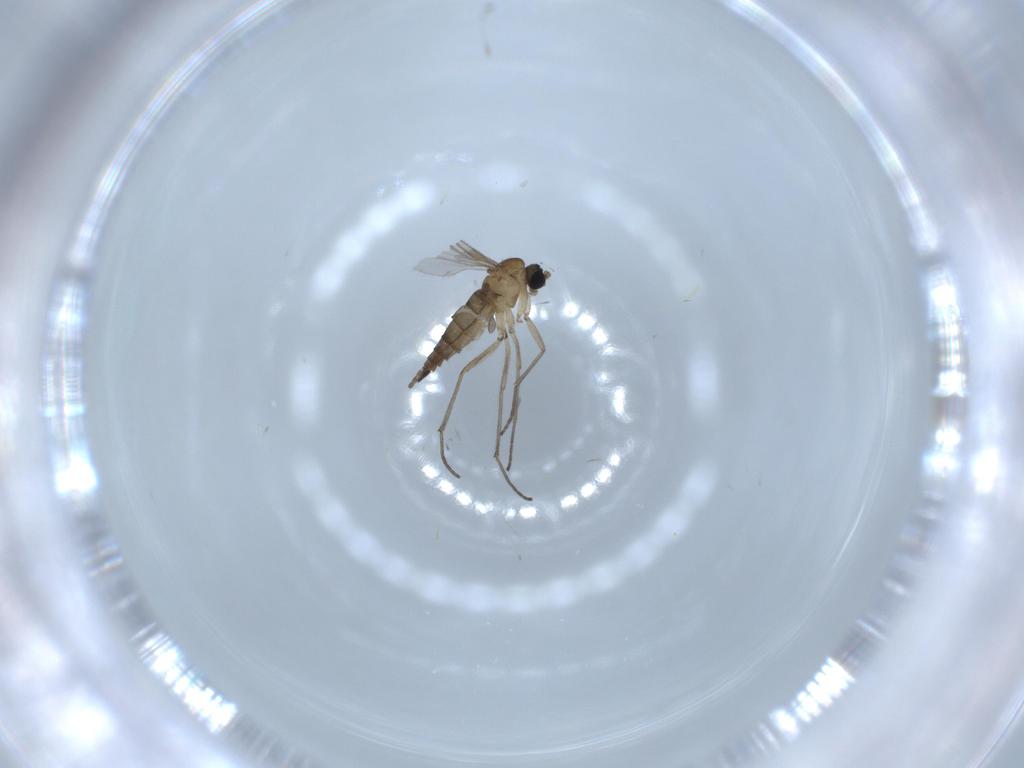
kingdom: Animalia
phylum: Arthropoda
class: Insecta
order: Diptera
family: Sciaridae
